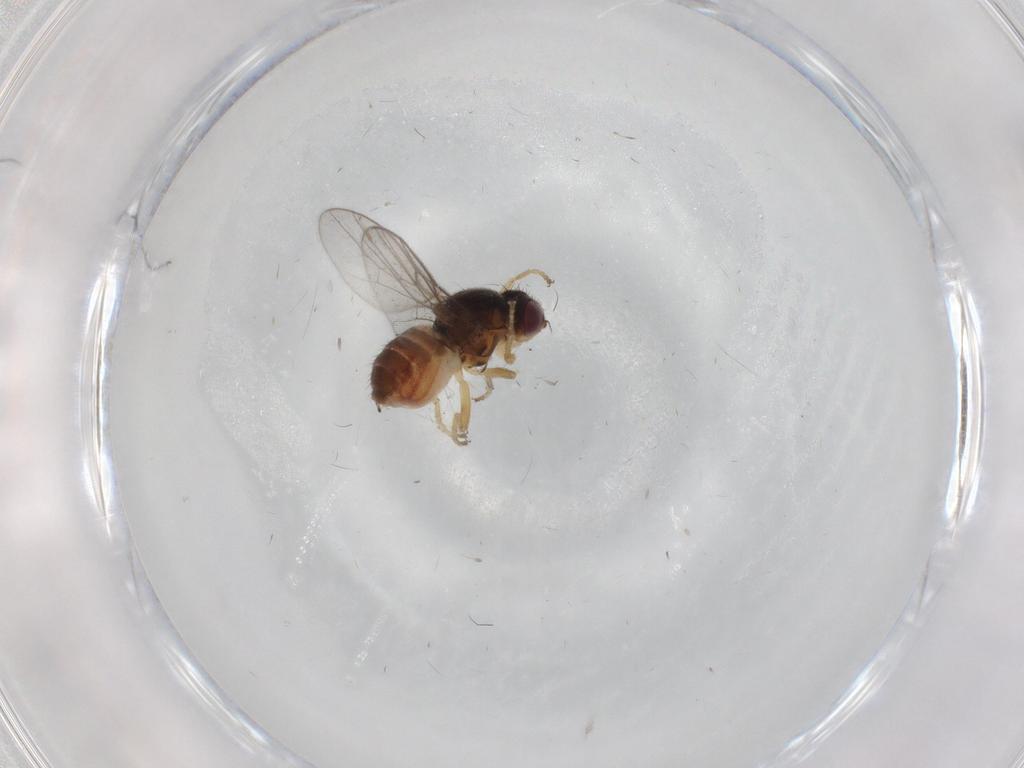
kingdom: Animalia
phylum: Arthropoda
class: Insecta
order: Diptera
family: Chloropidae
